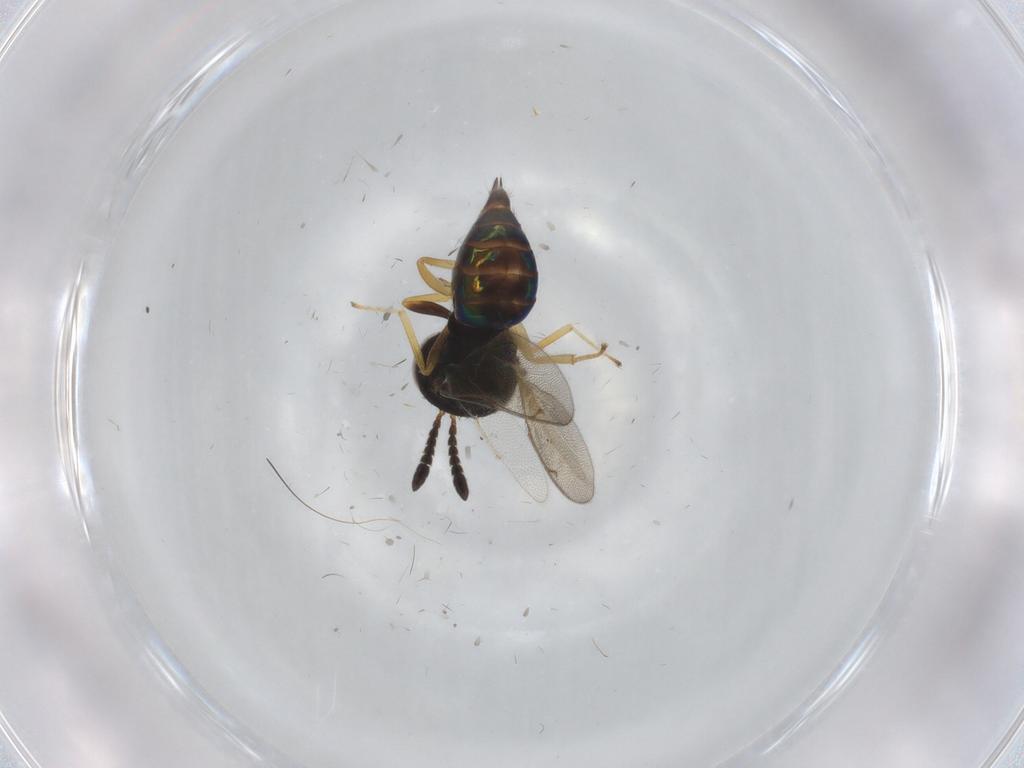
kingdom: Animalia
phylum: Arthropoda
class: Insecta
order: Hymenoptera
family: Pteromalidae
